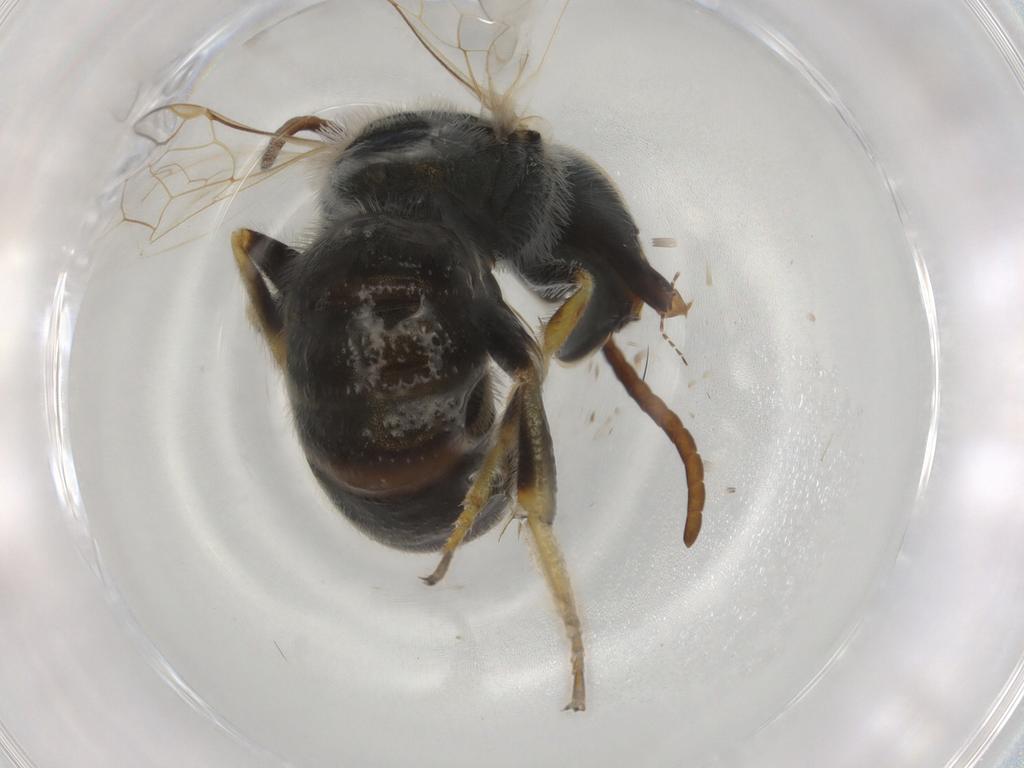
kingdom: Animalia
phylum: Arthropoda
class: Insecta
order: Hymenoptera
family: Halictidae
